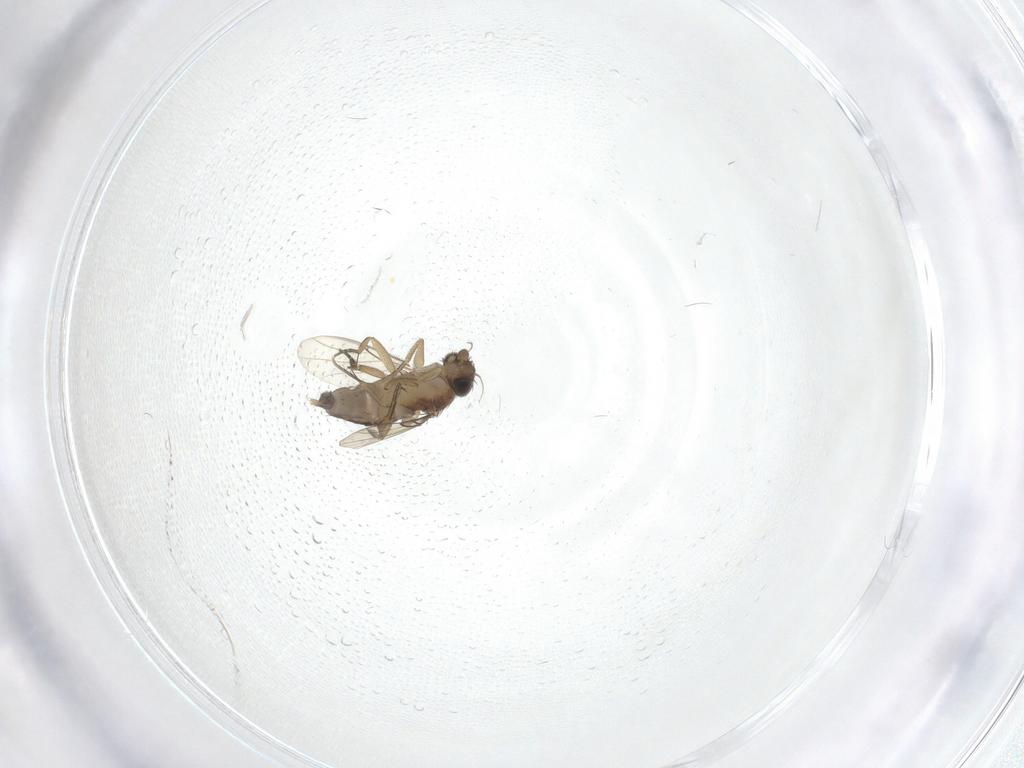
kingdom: Animalia
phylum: Arthropoda
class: Insecta
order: Diptera
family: Phoridae
